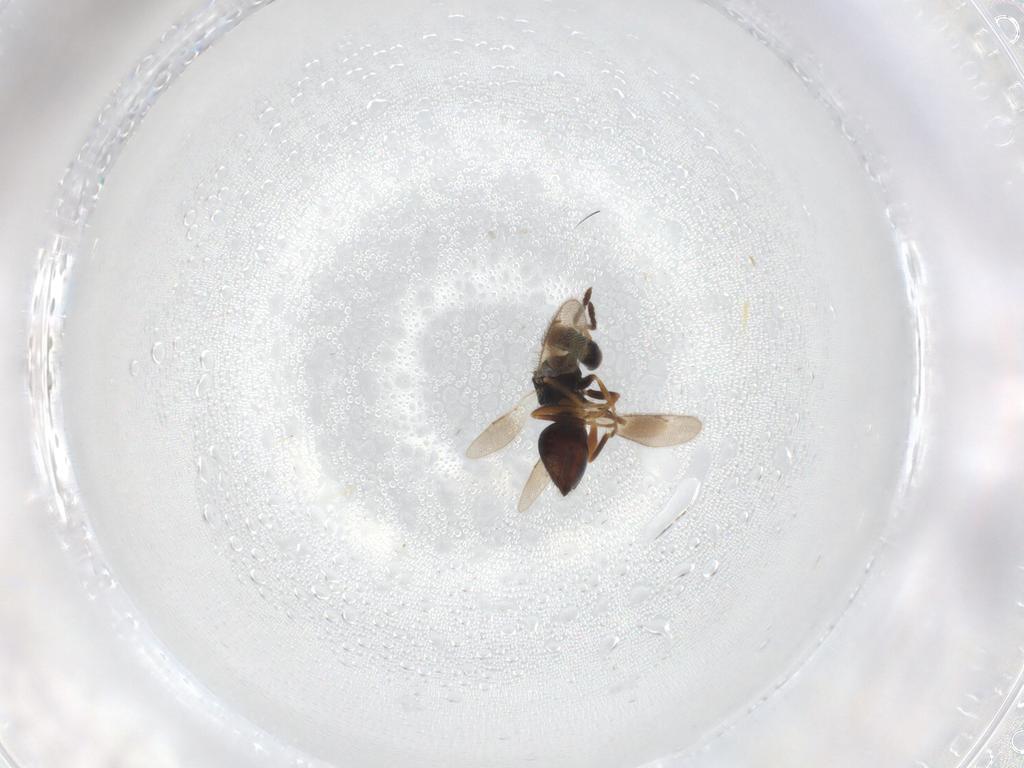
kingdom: Animalia
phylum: Arthropoda
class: Insecta
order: Hymenoptera
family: Eulophidae
